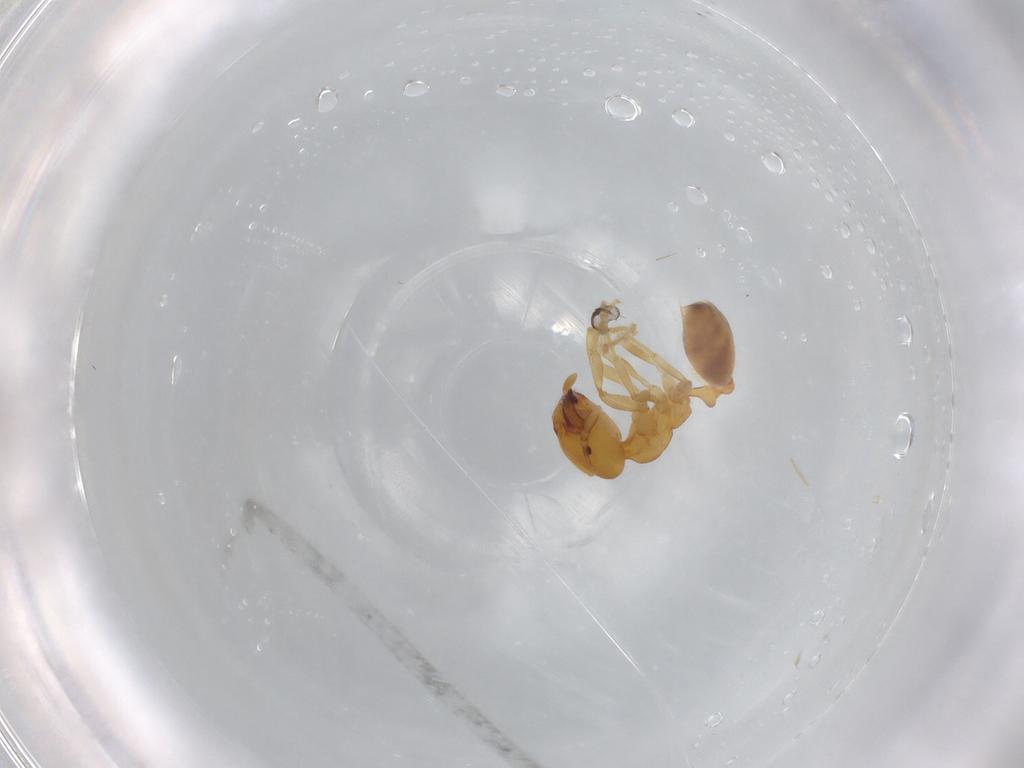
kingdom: Animalia
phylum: Arthropoda
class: Insecta
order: Hymenoptera
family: Formicidae
